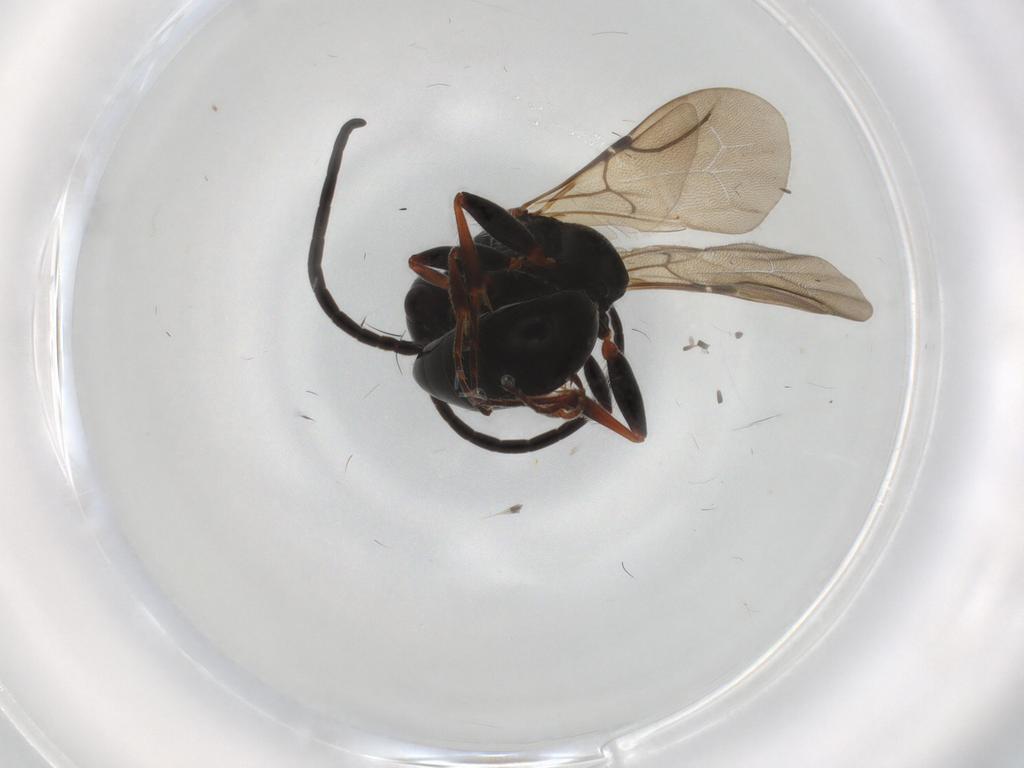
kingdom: Animalia
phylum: Arthropoda
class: Insecta
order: Hymenoptera
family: Bethylidae
